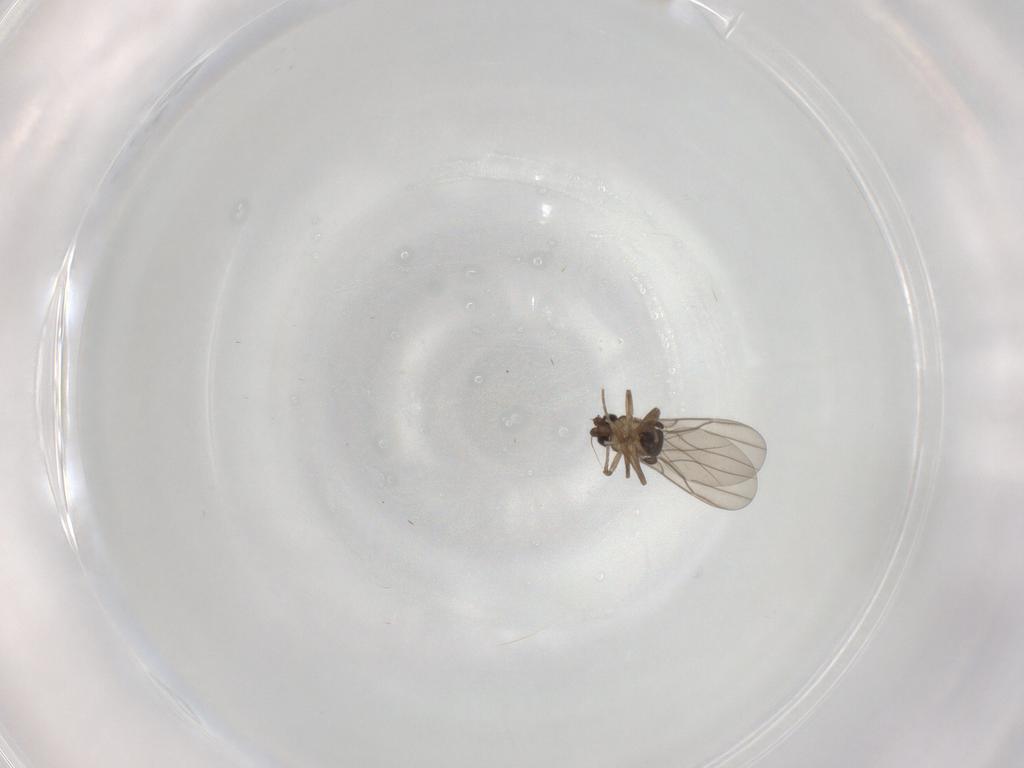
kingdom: Animalia
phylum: Arthropoda
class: Insecta
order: Diptera
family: Phoridae
